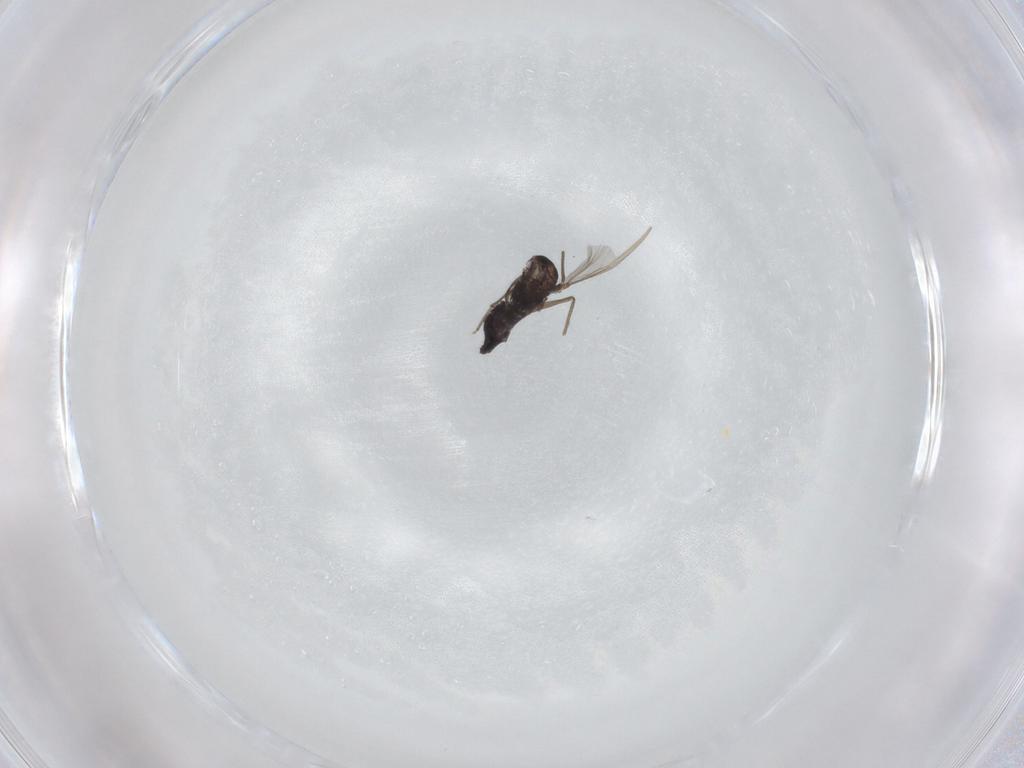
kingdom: Animalia
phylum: Arthropoda
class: Insecta
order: Diptera
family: Chironomidae
